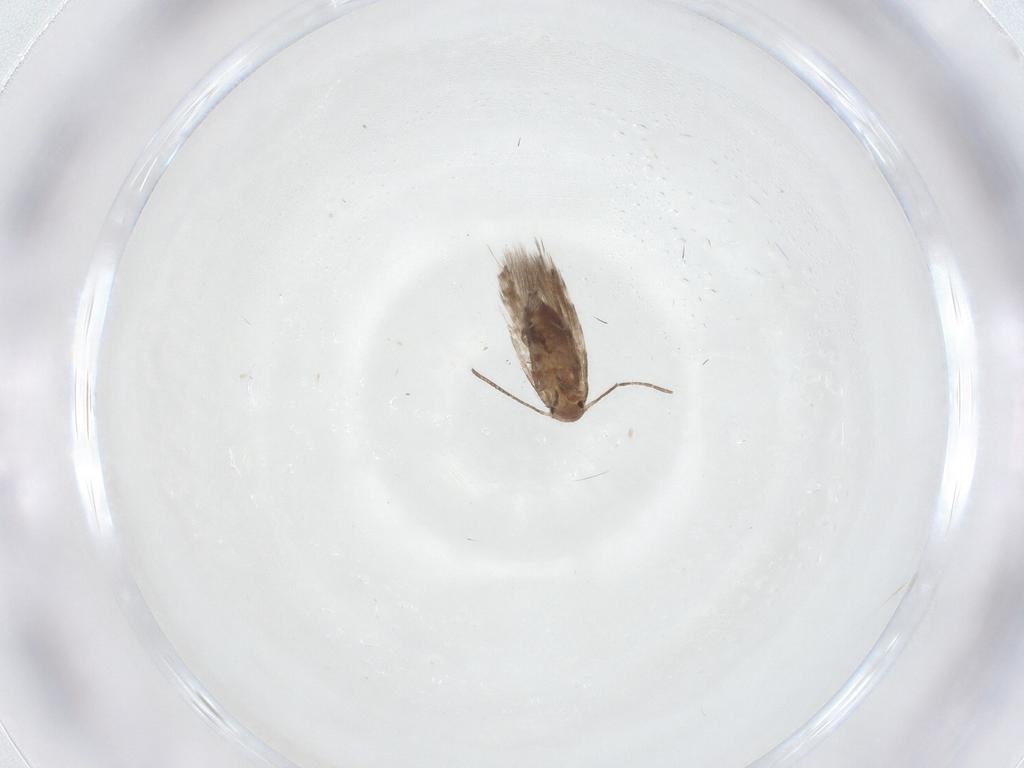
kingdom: Animalia
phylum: Arthropoda
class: Insecta
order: Lepidoptera
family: Lyonetiidae
